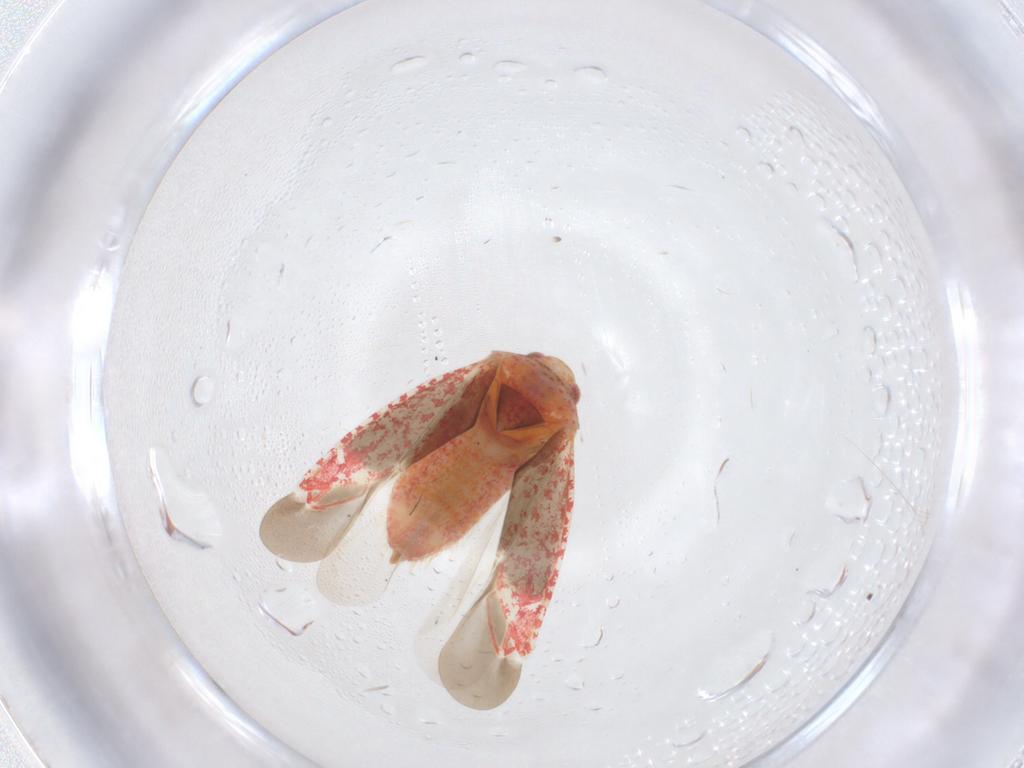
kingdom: Animalia
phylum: Arthropoda
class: Insecta
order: Hemiptera
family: Miridae
